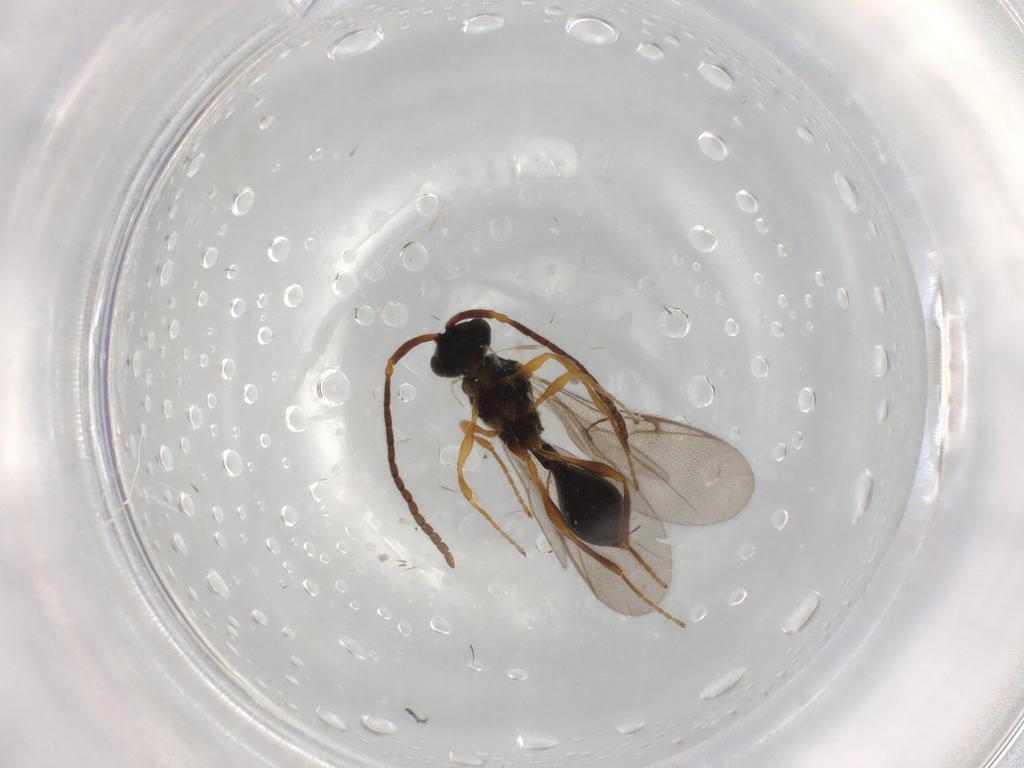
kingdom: Animalia
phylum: Arthropoda
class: Insecta
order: Hymenoptera
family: Diapriidae
